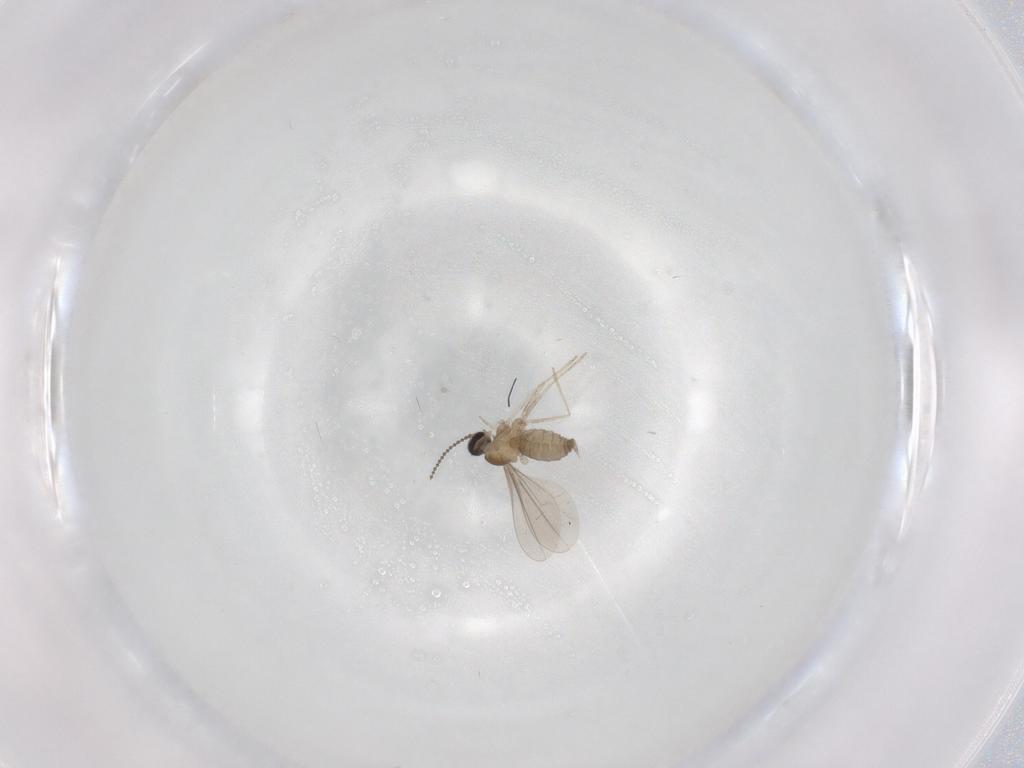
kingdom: Animalia
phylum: Arthropoda
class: Insecta
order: Diptera
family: Cecidomyiidae
